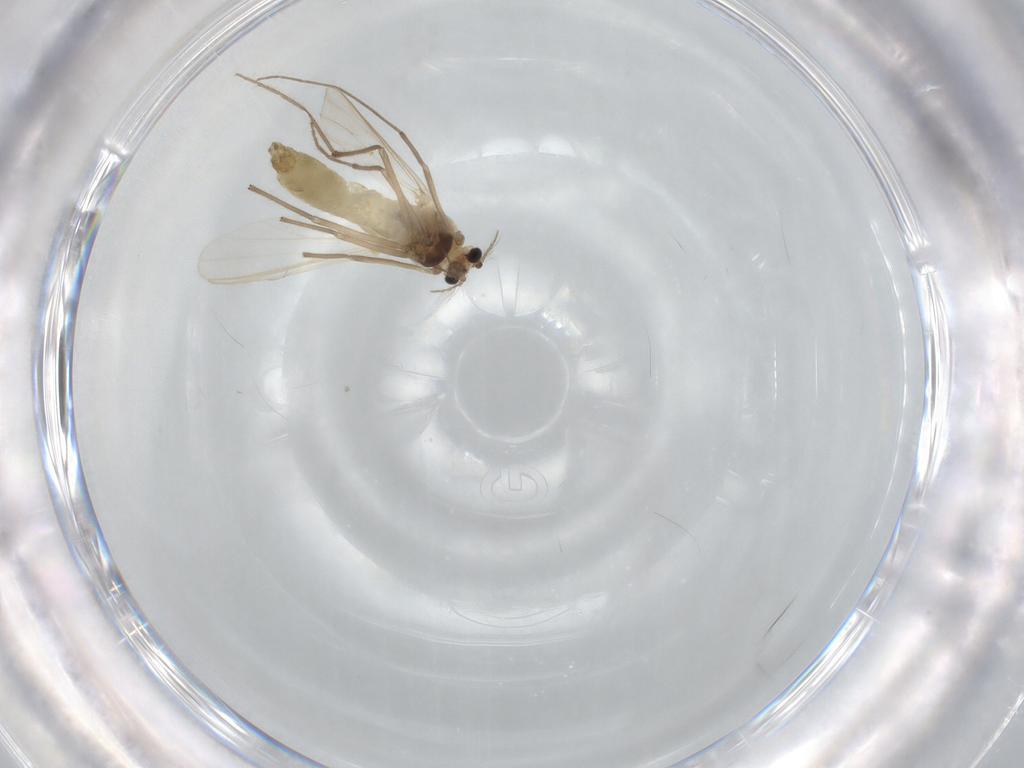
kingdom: Animalia
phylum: Arthropoda
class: Insecta
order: Diptera
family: Chironomidae
